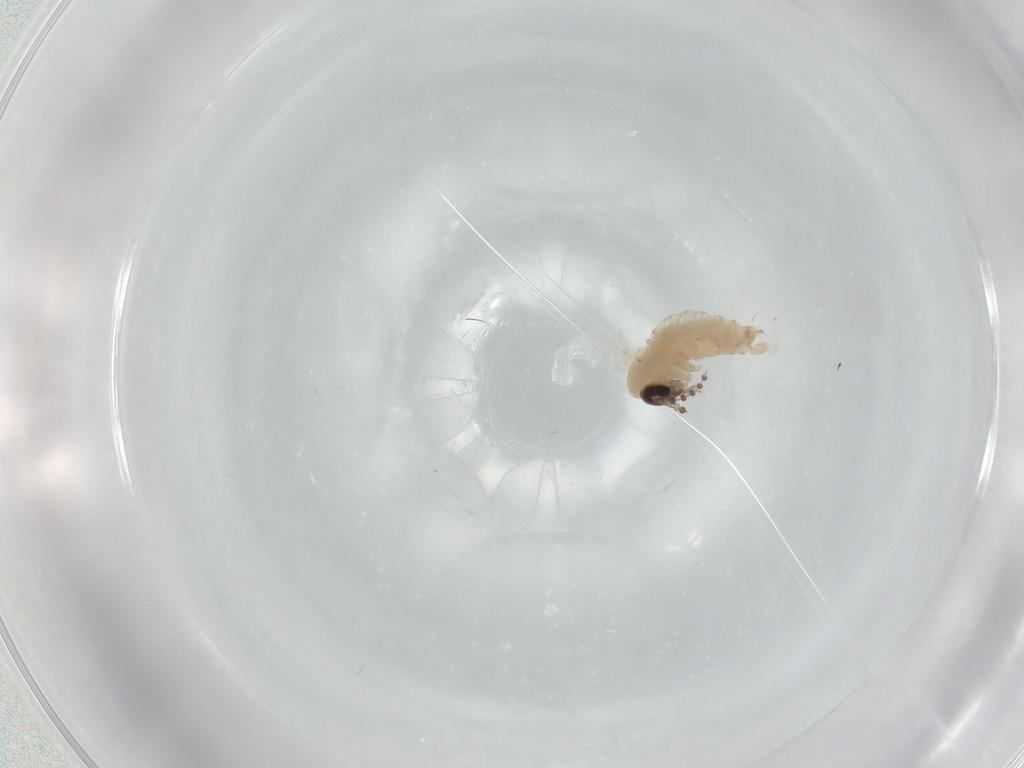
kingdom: Animalia
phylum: Arthropoda
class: Insecta
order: Diptera
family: Psychodidae
